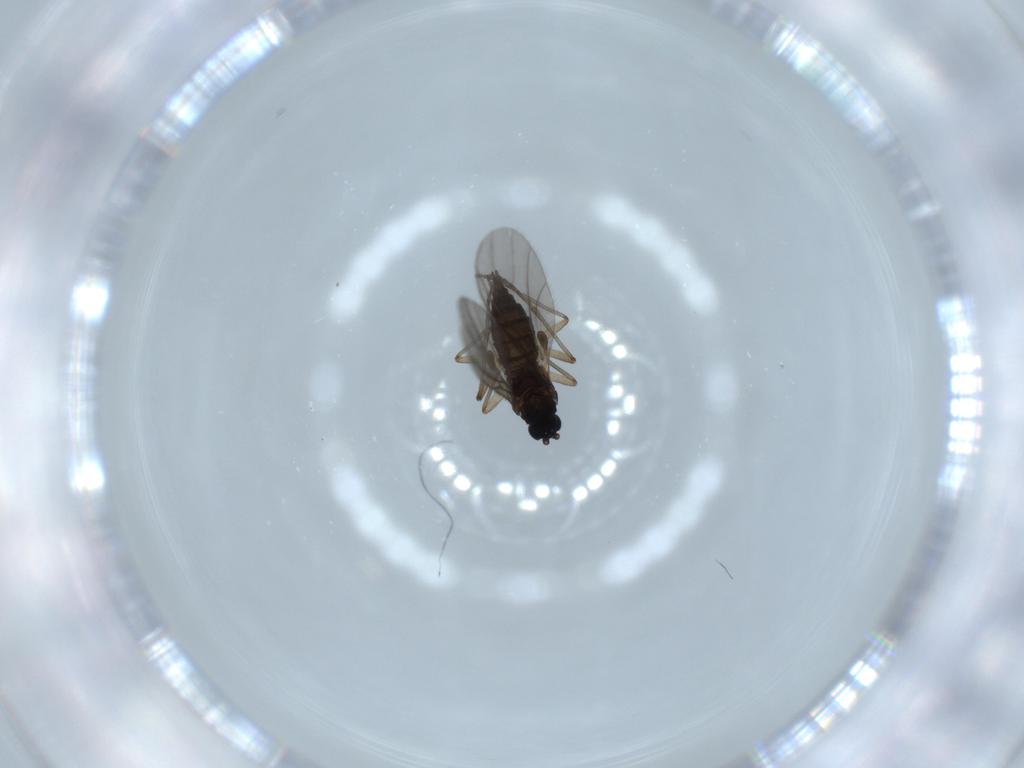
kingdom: Animalia
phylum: Arthropoda
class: Insecta
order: Diptera
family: Sciaridae
